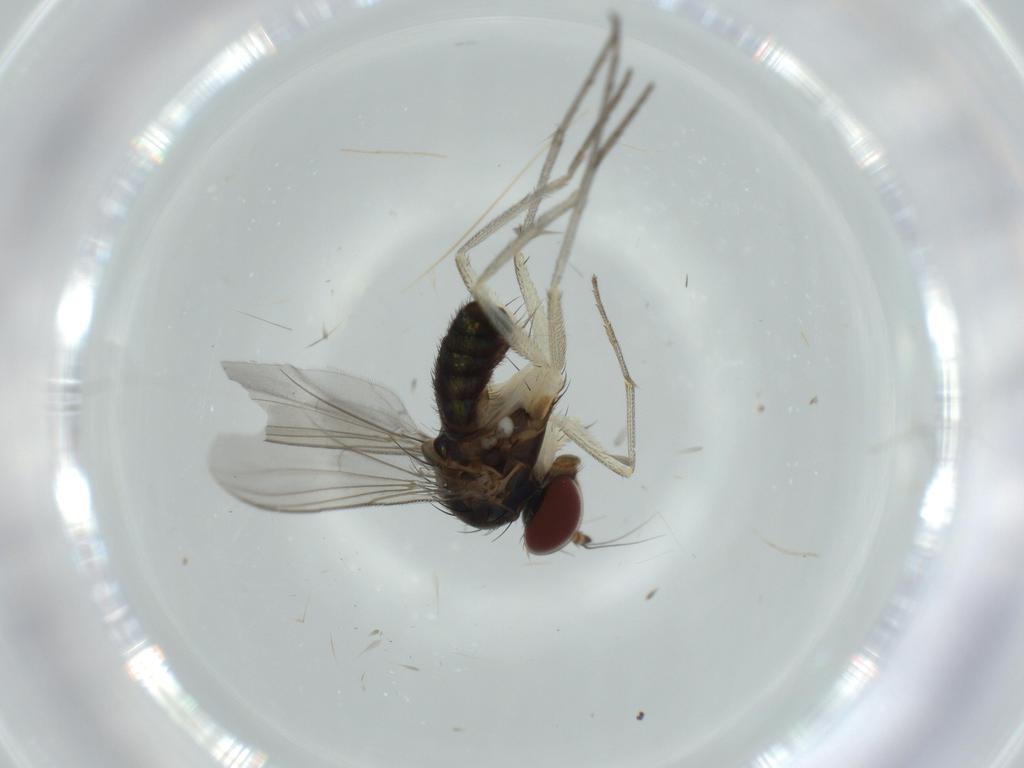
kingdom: Animalia
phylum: Arthropoda
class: Insecta
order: Diptera
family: Dolichopodidae
